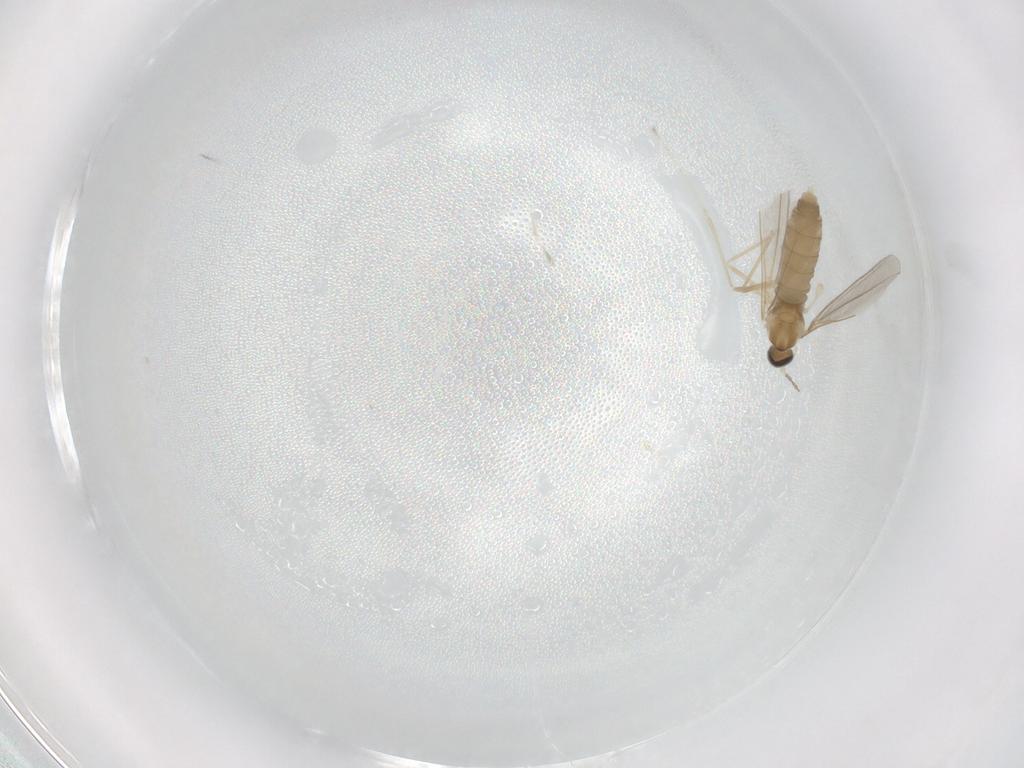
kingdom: Animalia
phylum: Arthropoda
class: Insecta
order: Diptera
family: Cecidomyiidae
